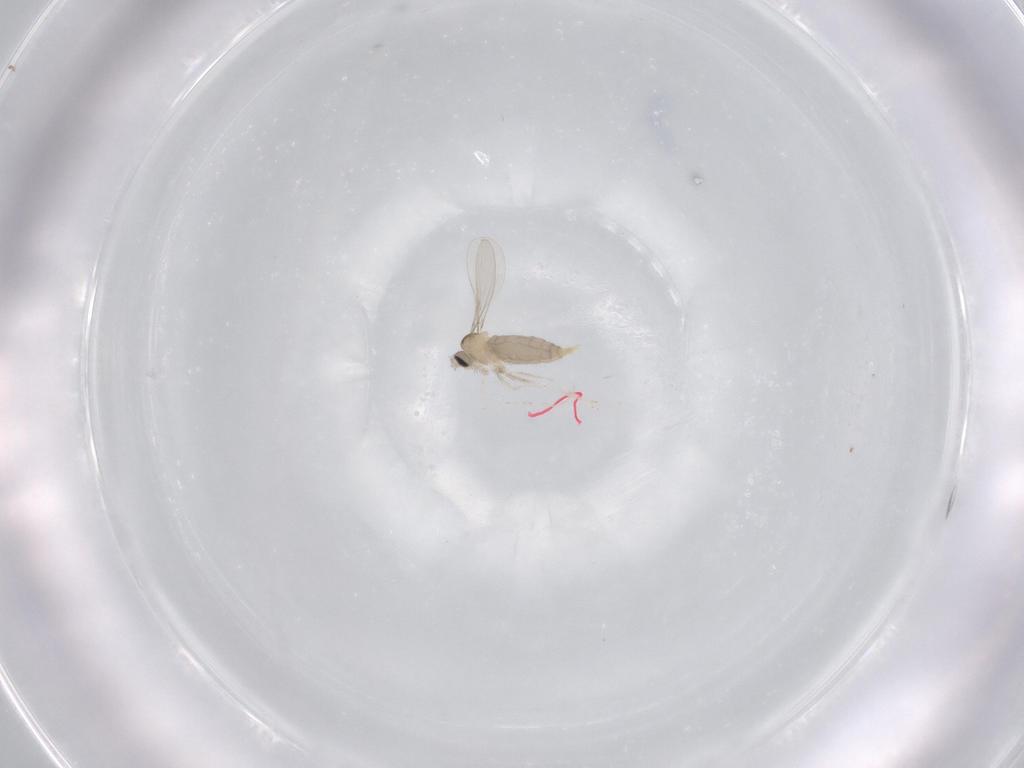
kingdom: Animalia
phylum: Arthropoda
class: Insecta
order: Diptera
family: Cecidomyiidae
